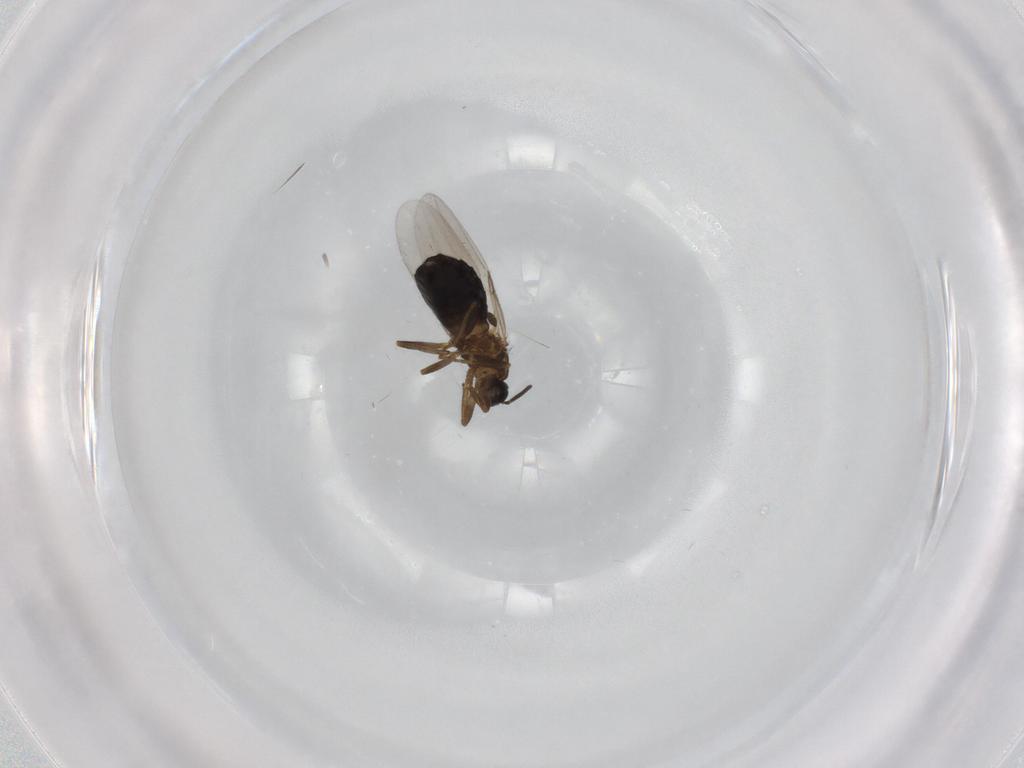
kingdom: Animalia
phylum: Arthropoda
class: Insecta
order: Diptera
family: Scatopsidae
